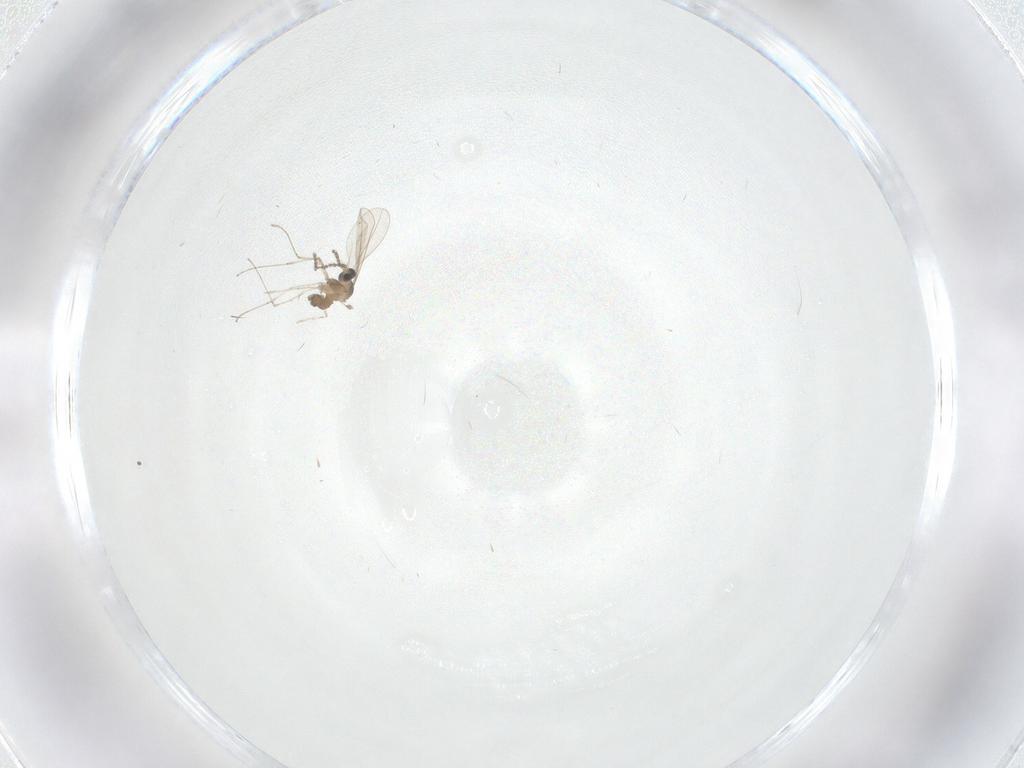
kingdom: Animalia
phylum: Arthropoda
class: Insecta
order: Diptera
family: Cecidomyiidae
